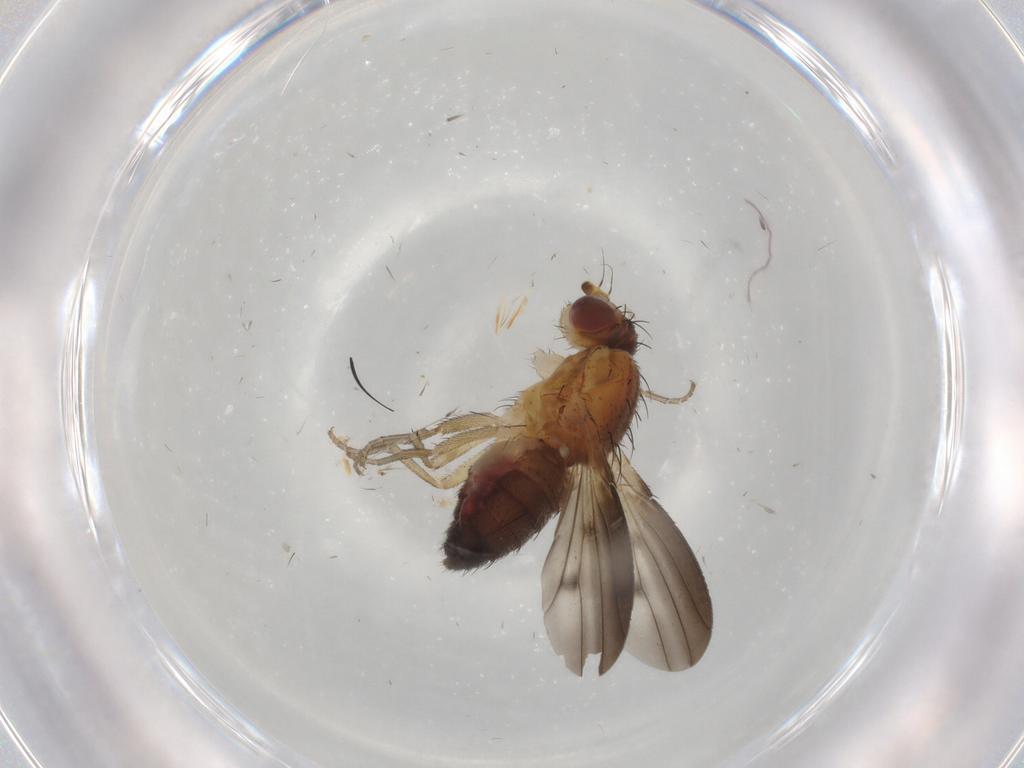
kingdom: Animalia
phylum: Arthropoda
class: Insecta
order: Diptera
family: Heleomyzidae
